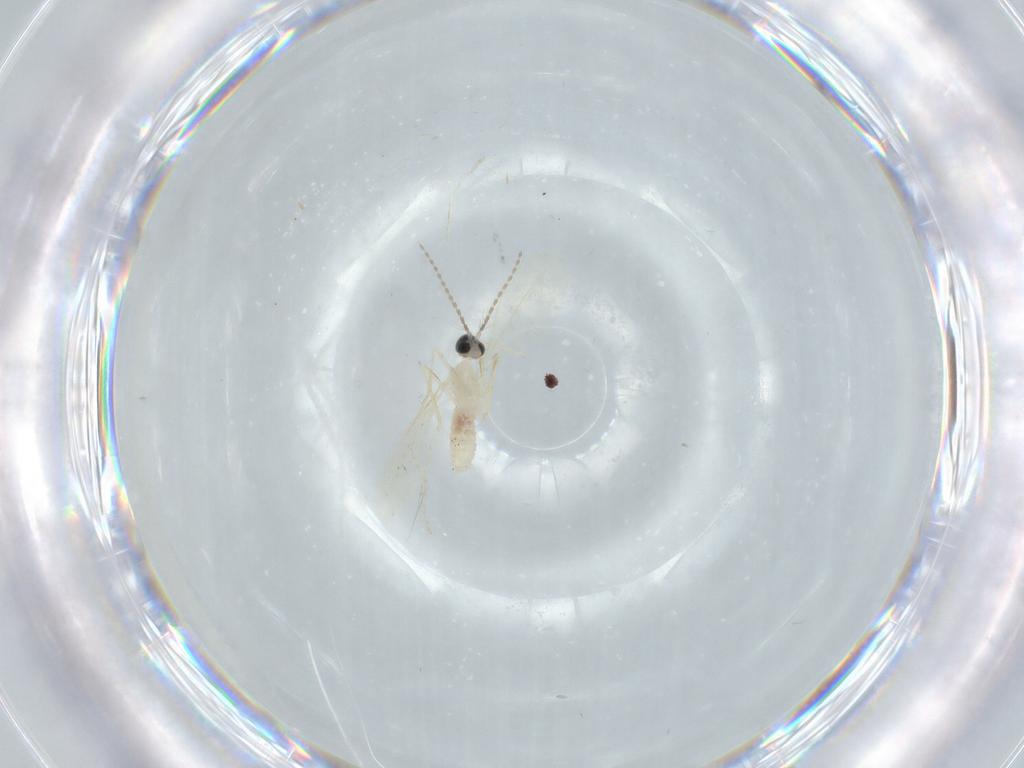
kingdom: Animalia
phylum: Arthropoda
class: Insecta
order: Diptera
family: Cecidomyiidae
